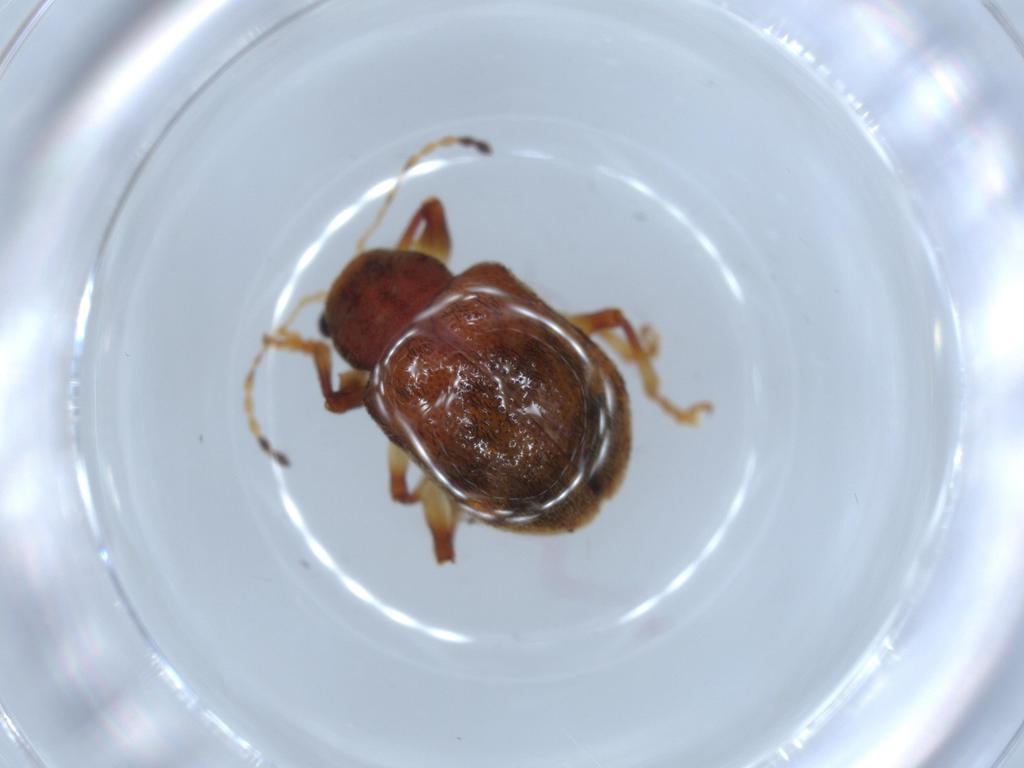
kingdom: Animalia
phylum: Arthropoda
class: Insecta
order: Coleoptera
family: Chrysomelidae
